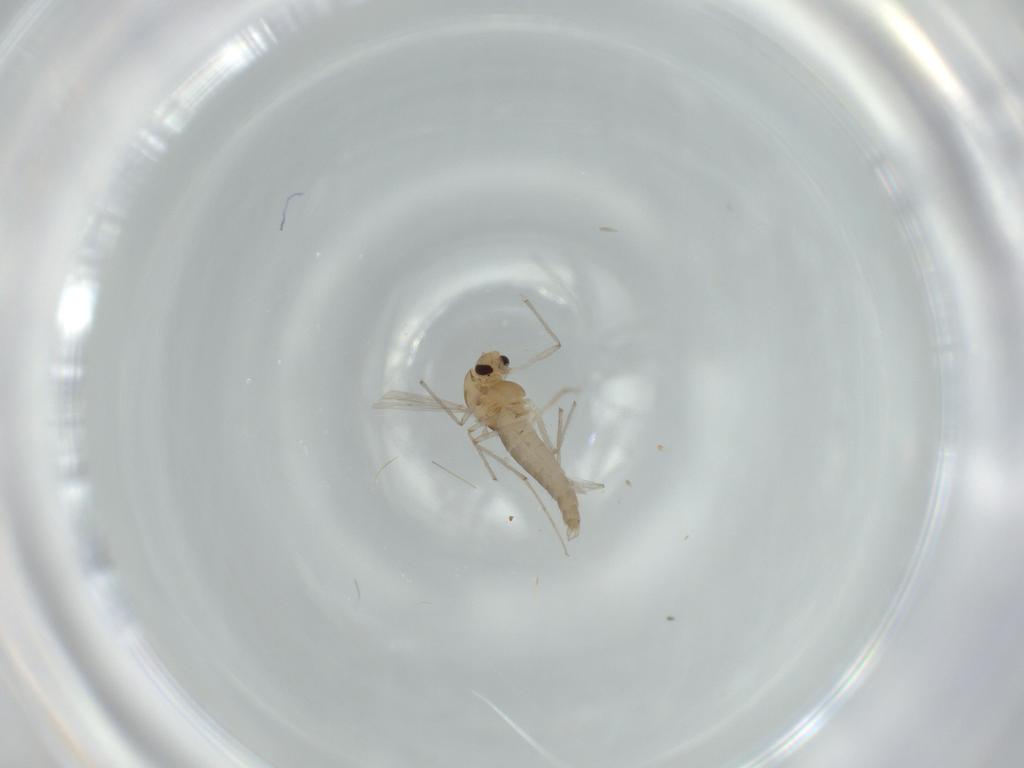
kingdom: Animalia
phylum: Arthropoda
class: Insecta
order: Diptera
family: Chironomidae
